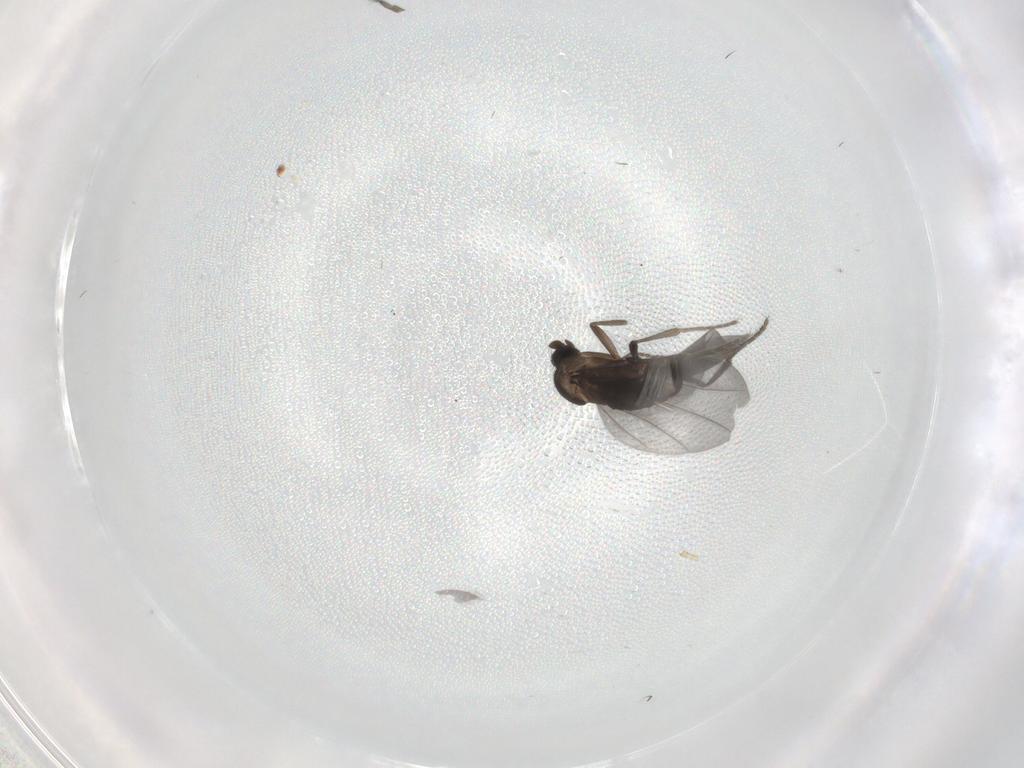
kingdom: Animalia
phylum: Arthropoda
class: Insecta
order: Diptera
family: Phoridae
